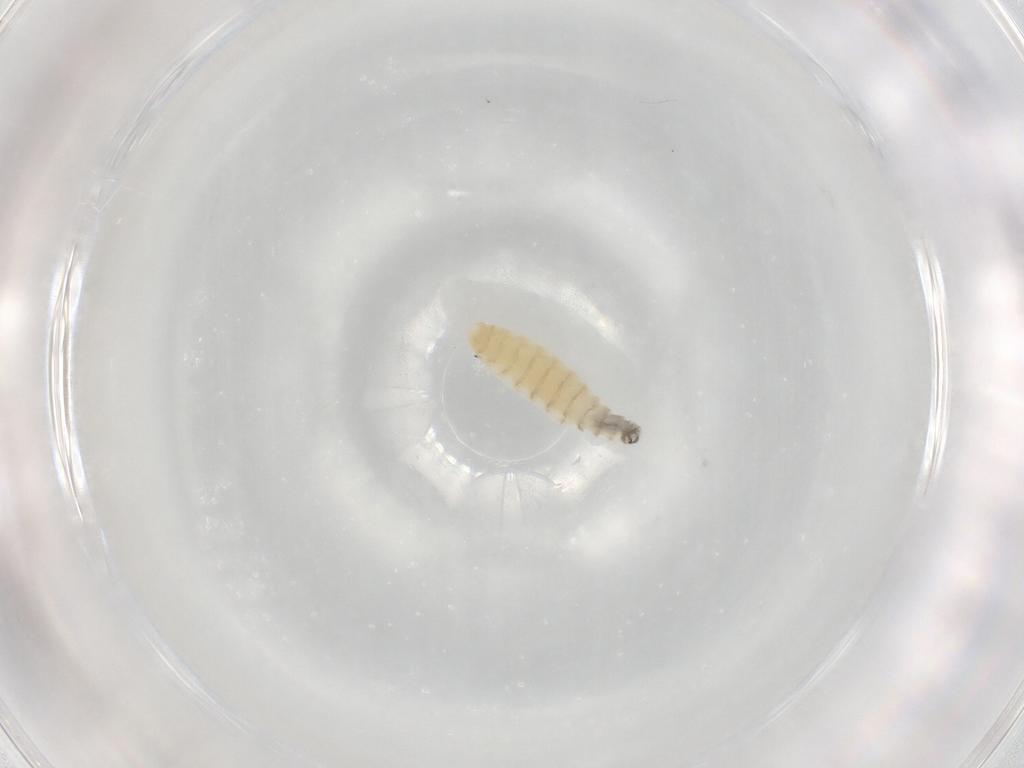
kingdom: Animalia
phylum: Arthropoda
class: Insecta
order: Diptera
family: Sarcophagidae
